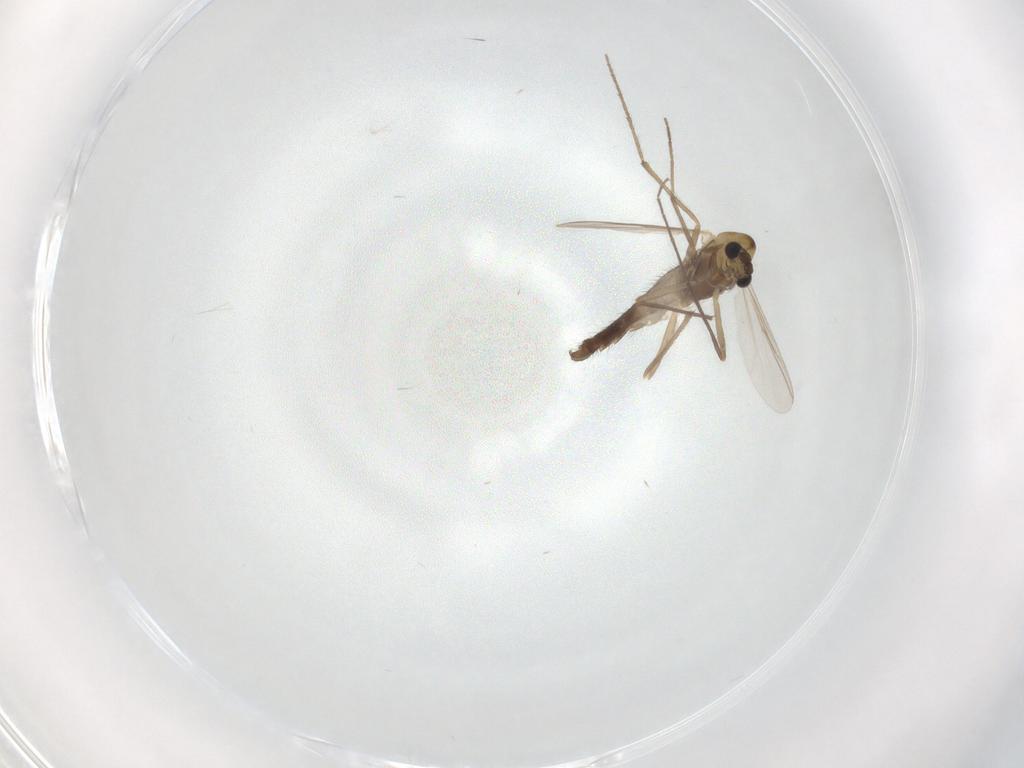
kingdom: Animalia
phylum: Arthropoda
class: Insecta
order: Diptera
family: Chironomidae
